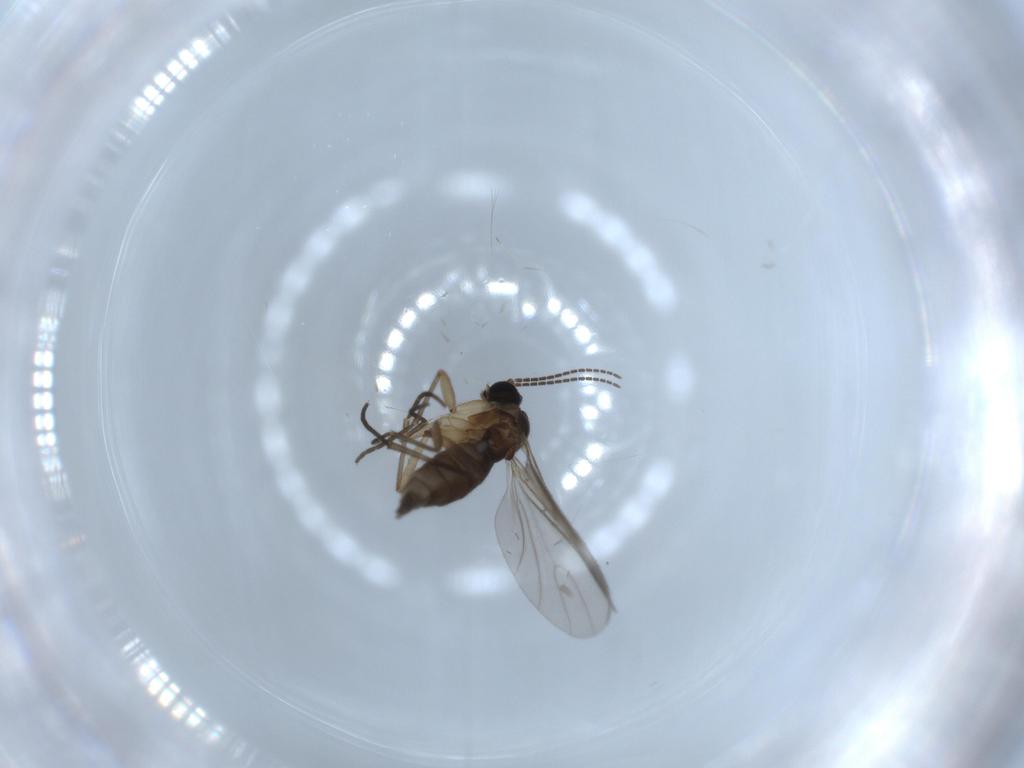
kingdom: Animalia
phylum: Arthropoda
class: Insecta
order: Diptera
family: Sciaridae
